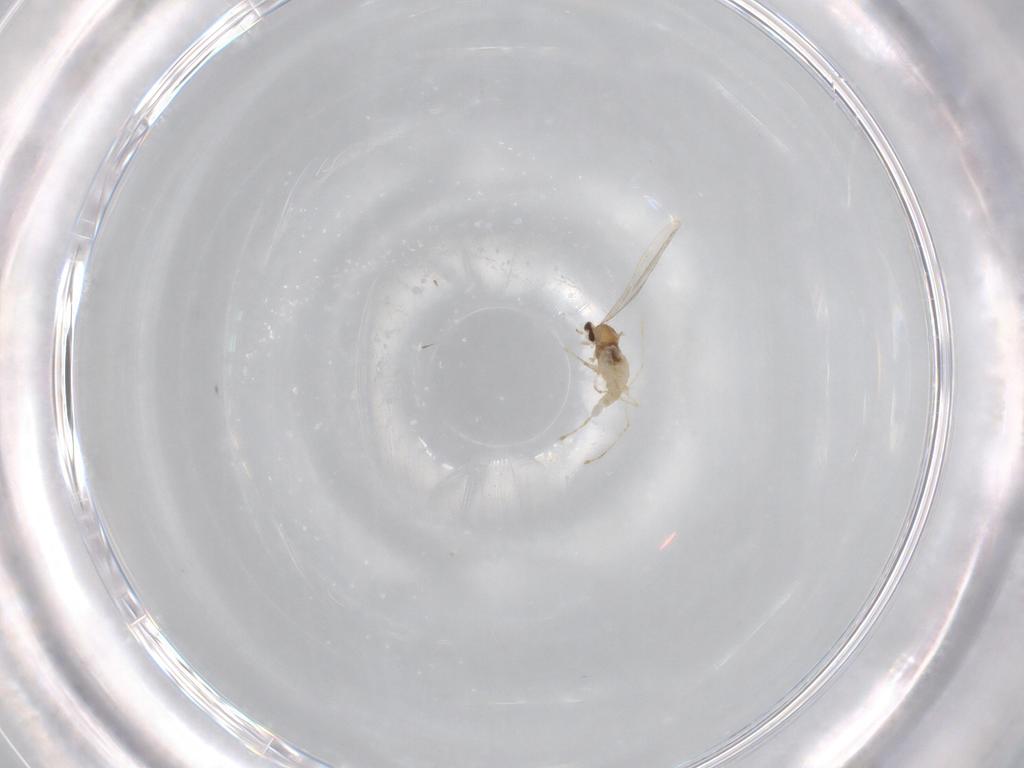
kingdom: Animalia
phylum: Arthropoda
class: Insecta
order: Diptera
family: Cecidomyiidae
